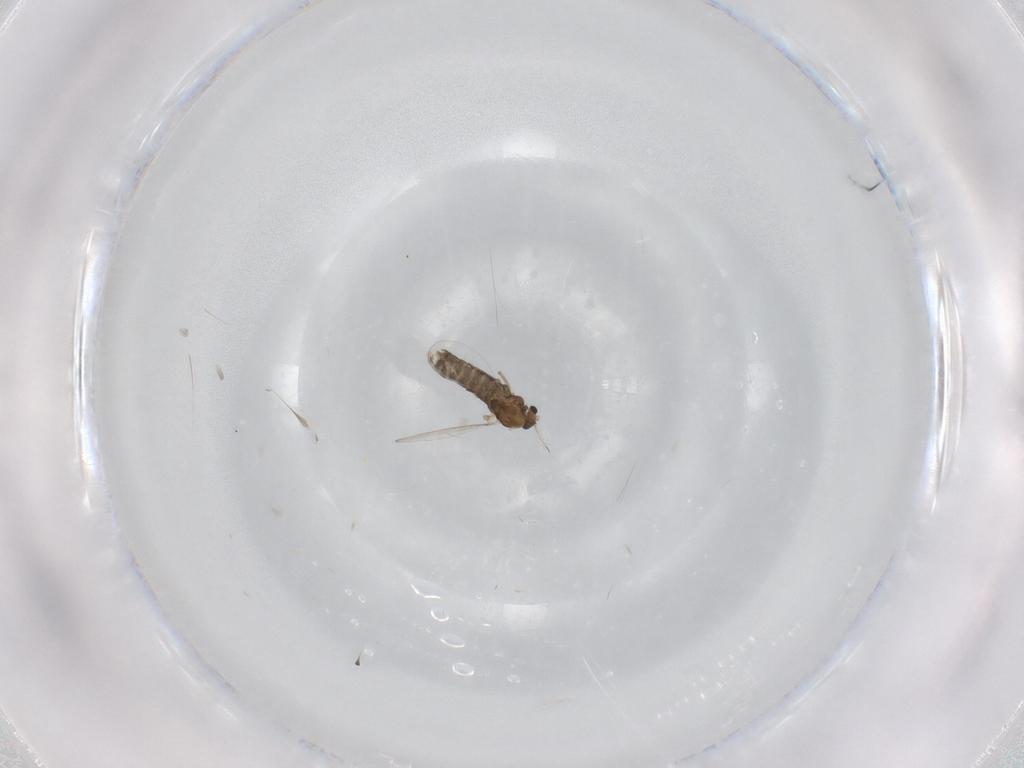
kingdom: Animalia
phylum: Arthropoda
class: Insecta
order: Diptera
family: Chironomidae
